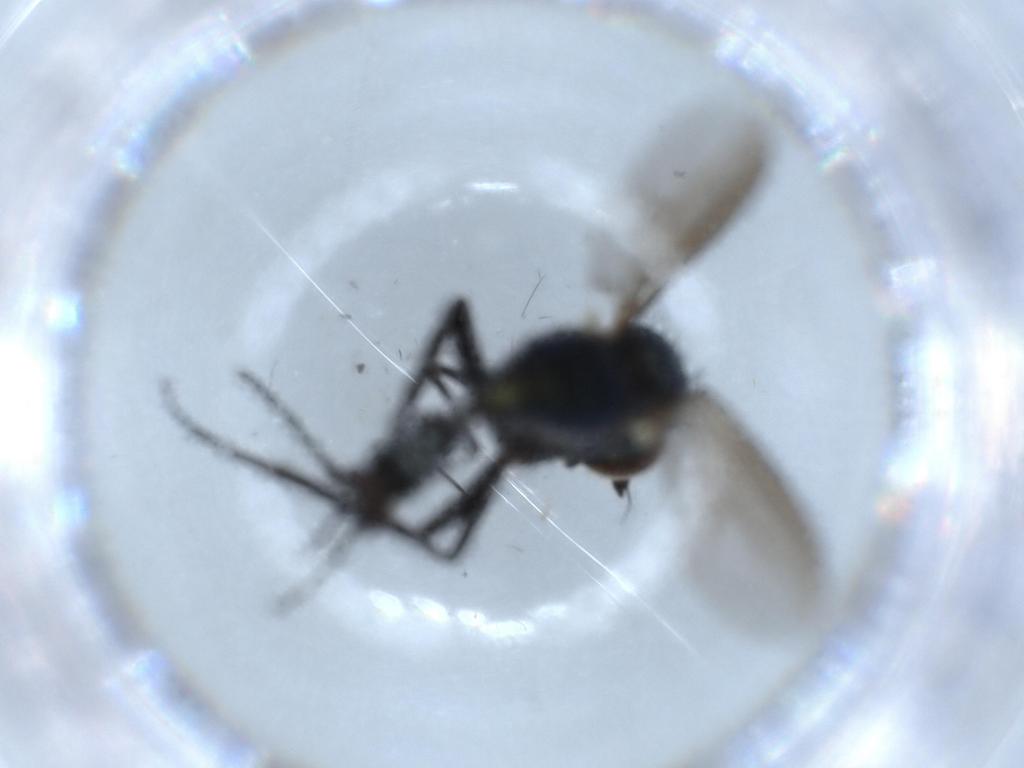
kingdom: Animalia
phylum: Arthropoda
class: Insecta
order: Diptera
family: Dolichopodidae
